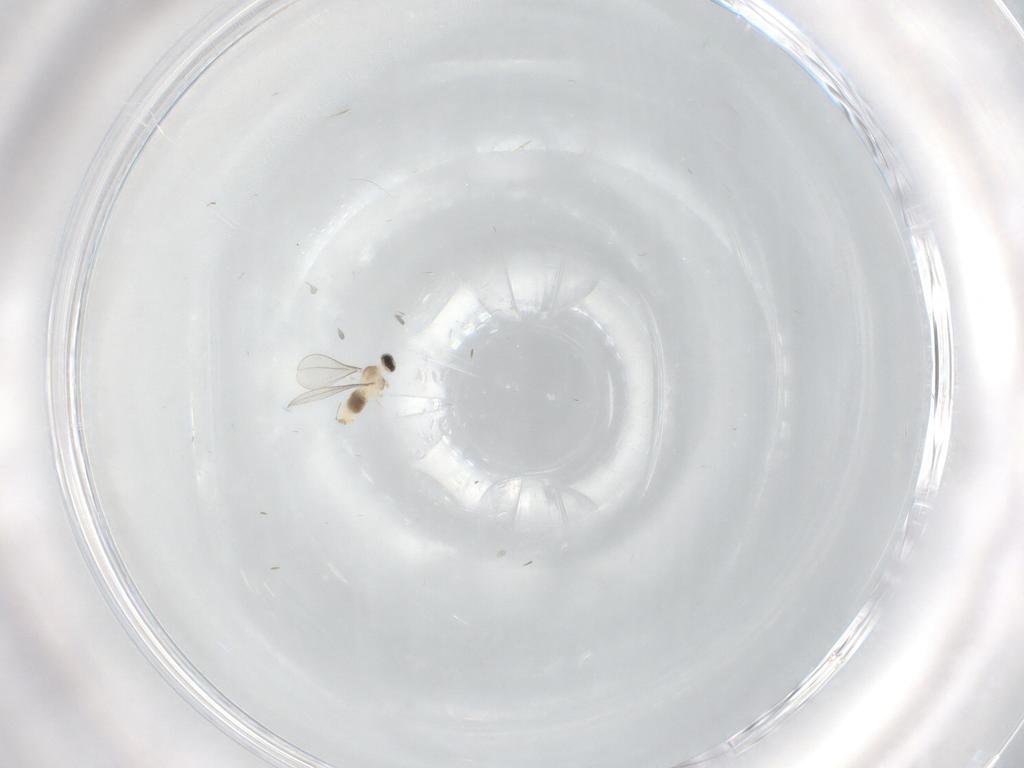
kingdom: Animalia
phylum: Arthropoda
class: Insecta
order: Diptera
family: Cecidomyiidae
